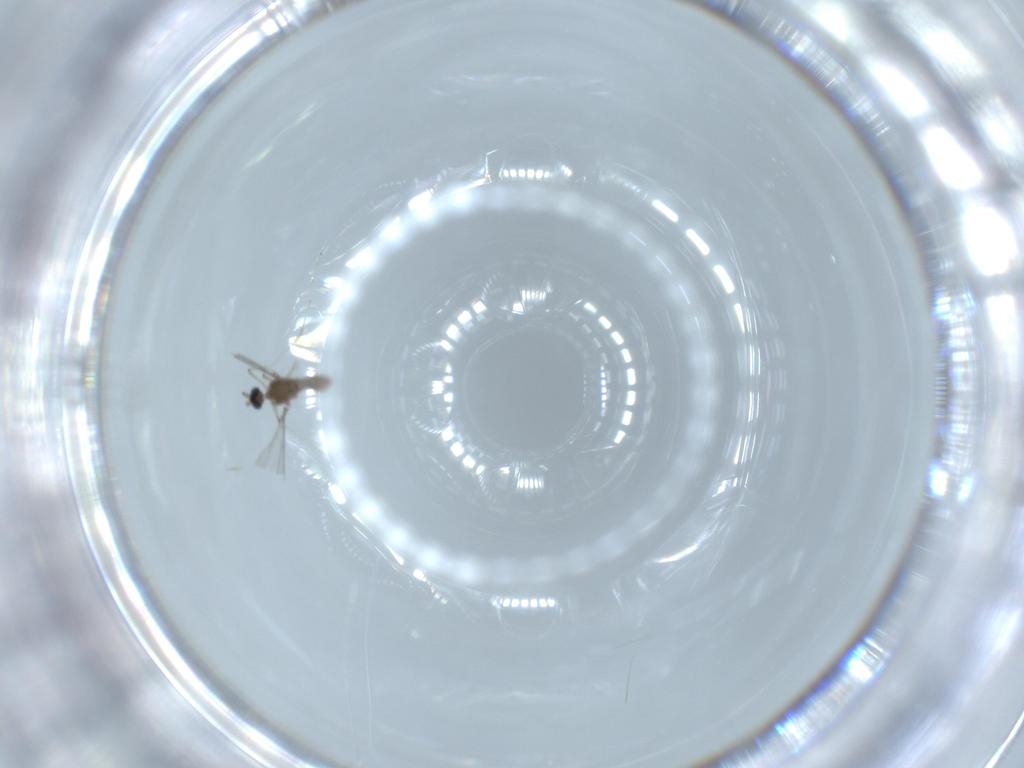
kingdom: Animalia
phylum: Arthropoda
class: Insecta
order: Diptera
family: Cecidomyiidae
